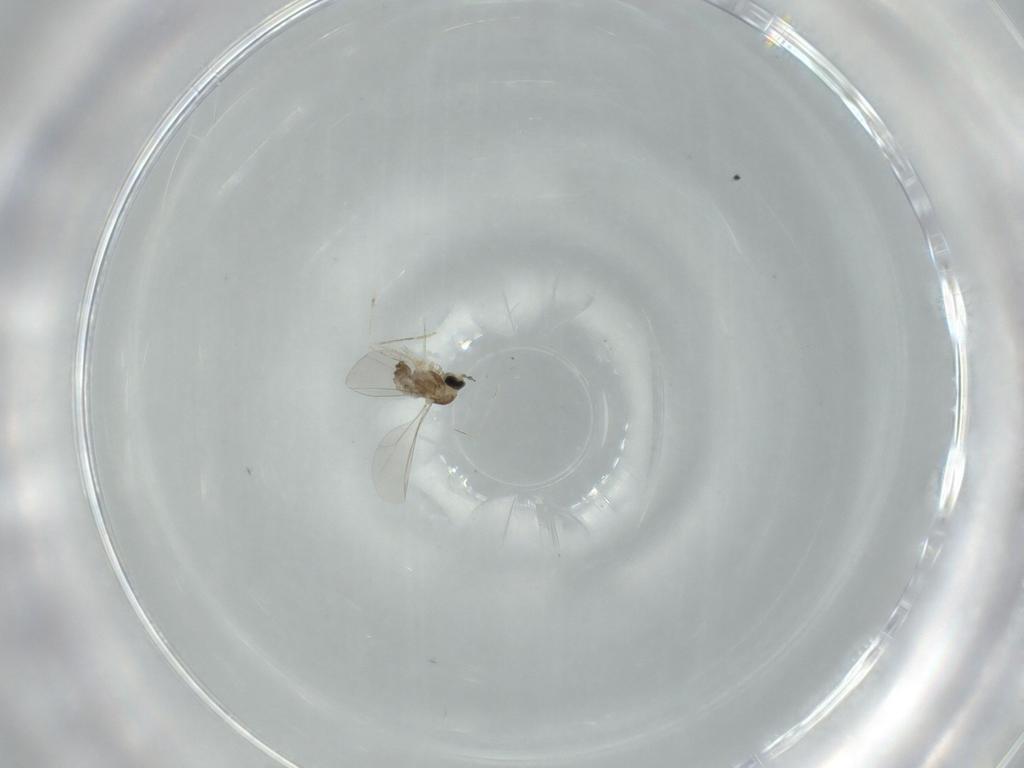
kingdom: Animalia
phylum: Arthropoda
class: Insecta
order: Diptera
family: Cecidomyiidae
